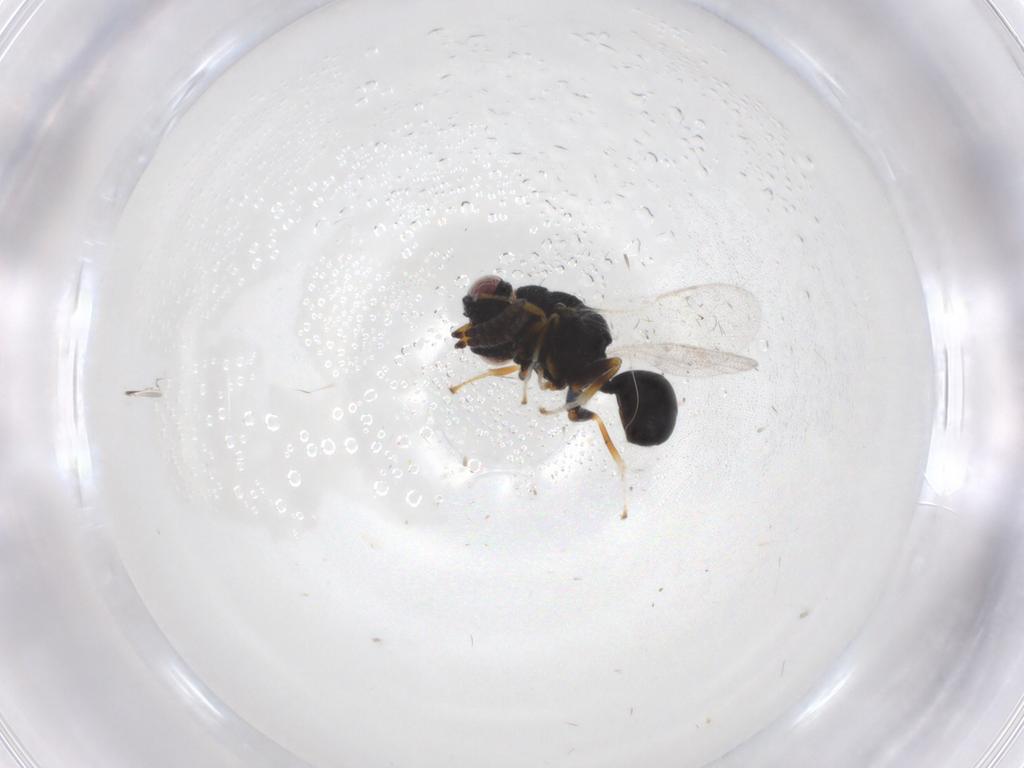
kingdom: Animalia
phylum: Arthropoda
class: Insecta
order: Hymenoptera
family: Eurytomidae
